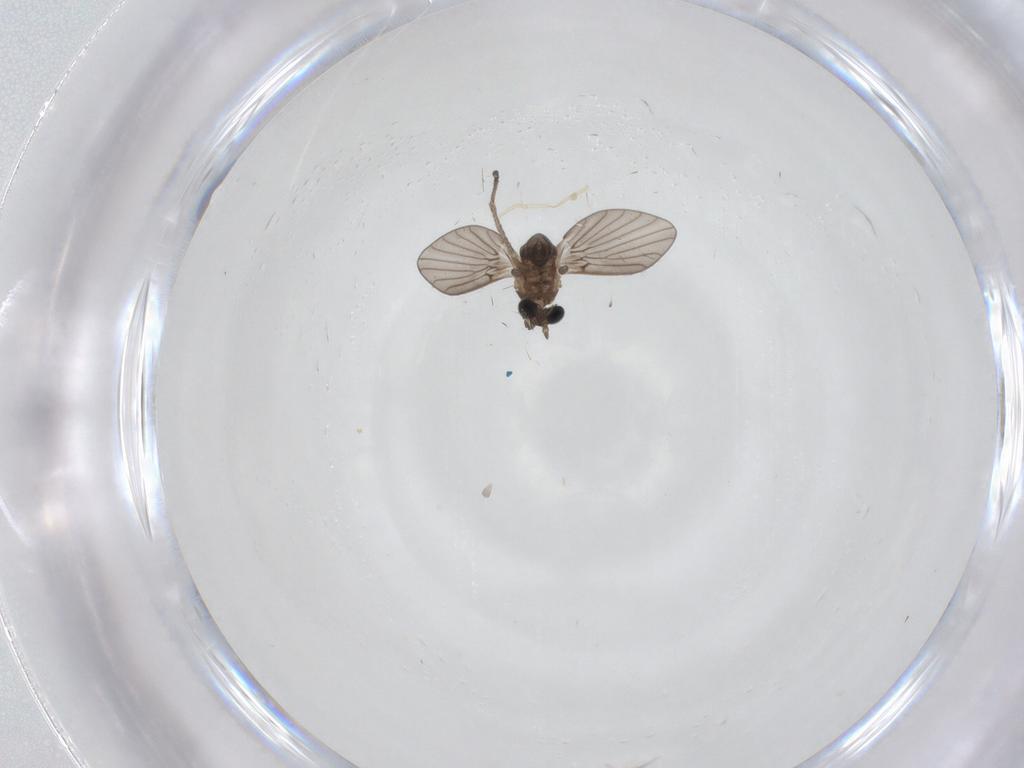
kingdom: Animalia
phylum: Arthropoda
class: Insecta
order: Diptera
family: Psychodidae
